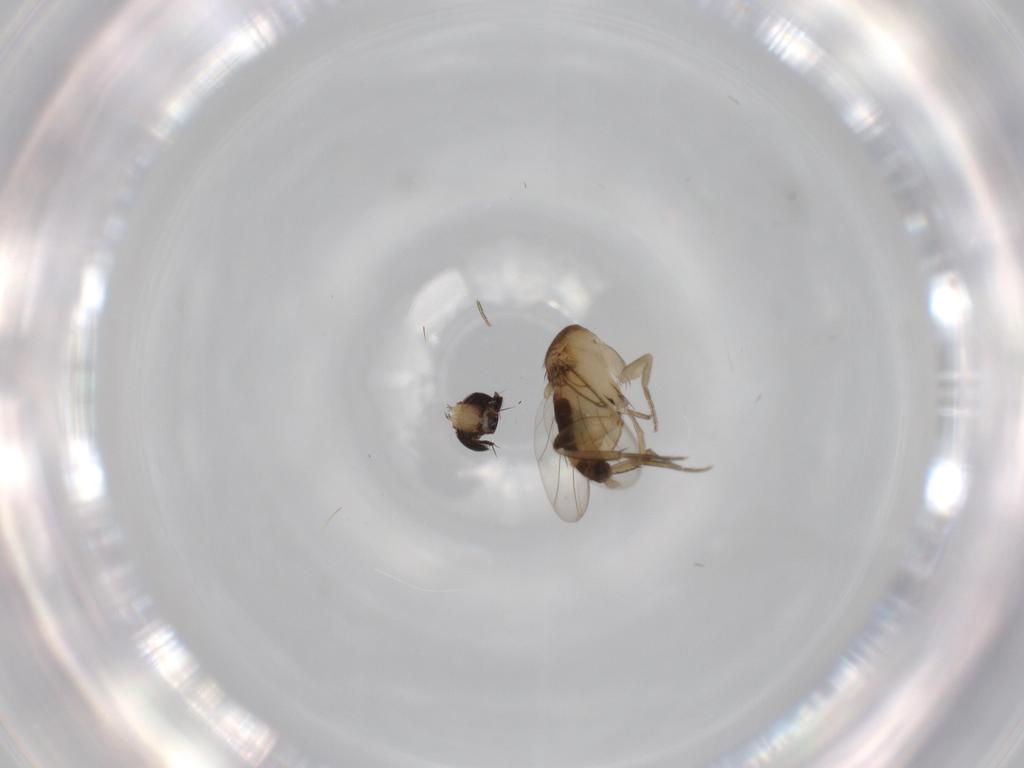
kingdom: Animalia
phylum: Arthropoda
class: Insecta
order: Diptera
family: Phoridae
